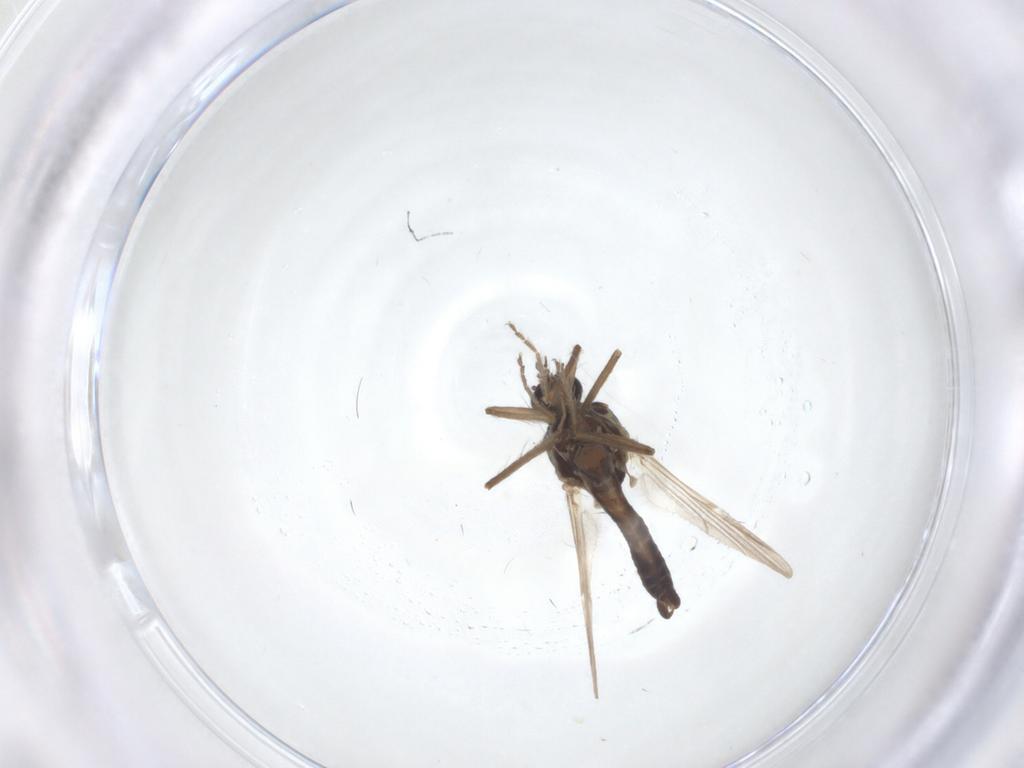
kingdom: Animalia
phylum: Arthropoda
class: Insecta
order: Diptera
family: Ceratopogonidae
